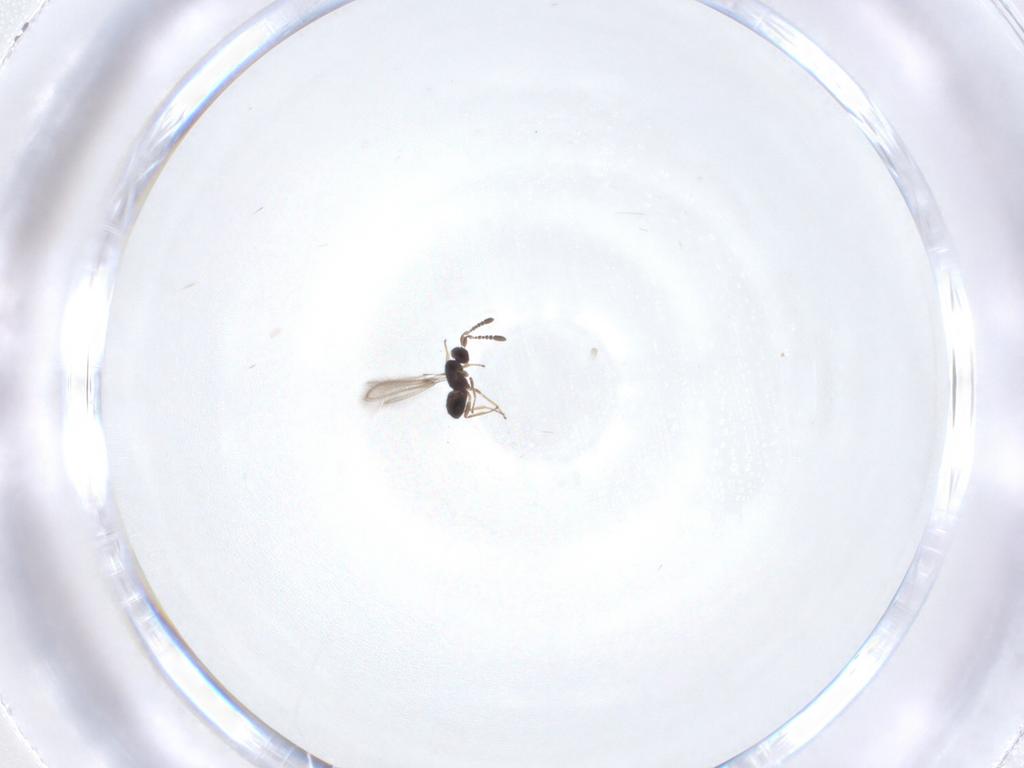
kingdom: Animalia
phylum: Arthropoda
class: Insecta
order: Hymenoptera
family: Mymaridae
